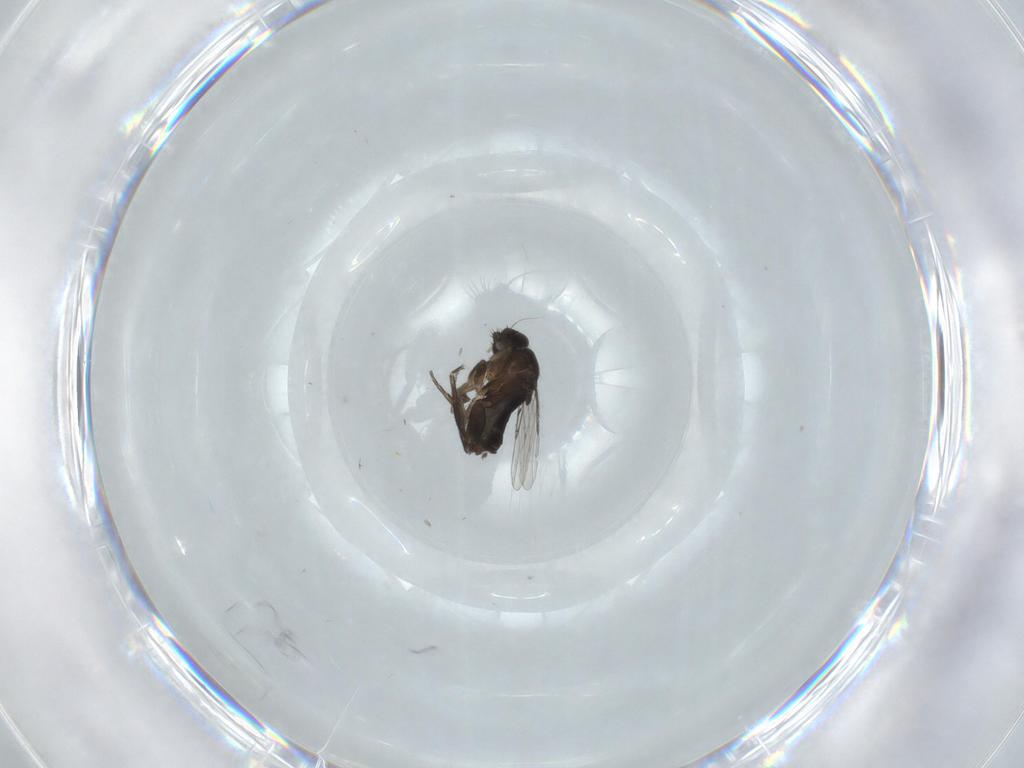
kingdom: Animalia
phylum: Arthropoda
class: Insecta
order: Diptera
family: Phoridae
